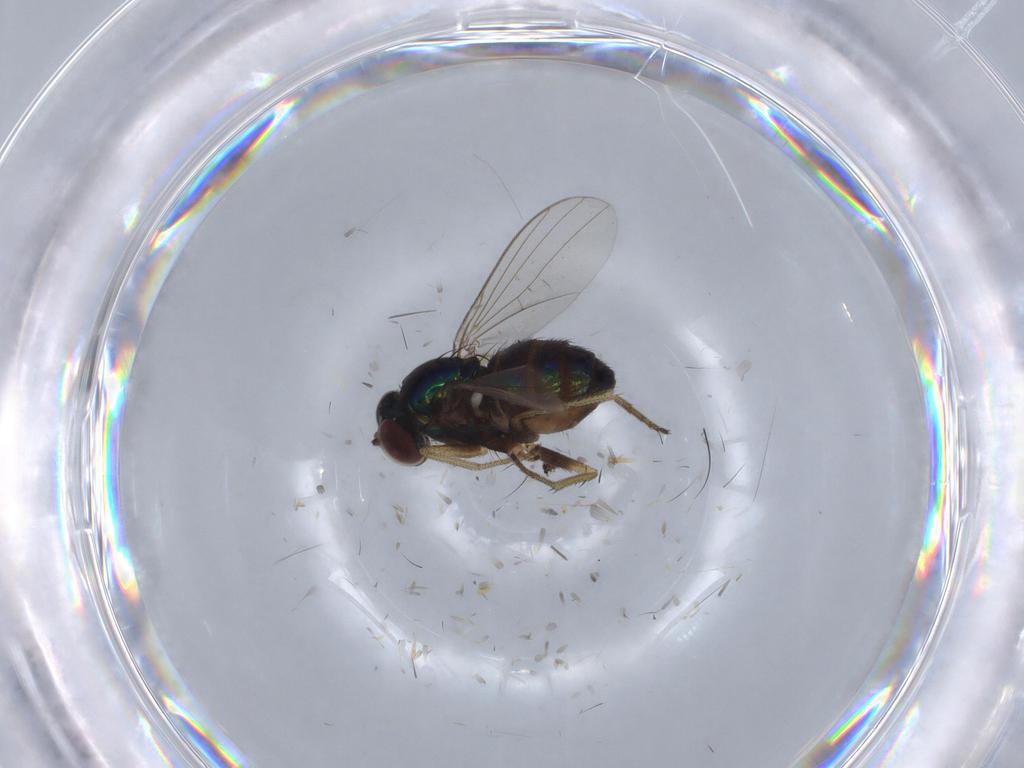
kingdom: Animalia
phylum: Arthropoda
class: Insecta
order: Diptera
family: Dolichopodidae
